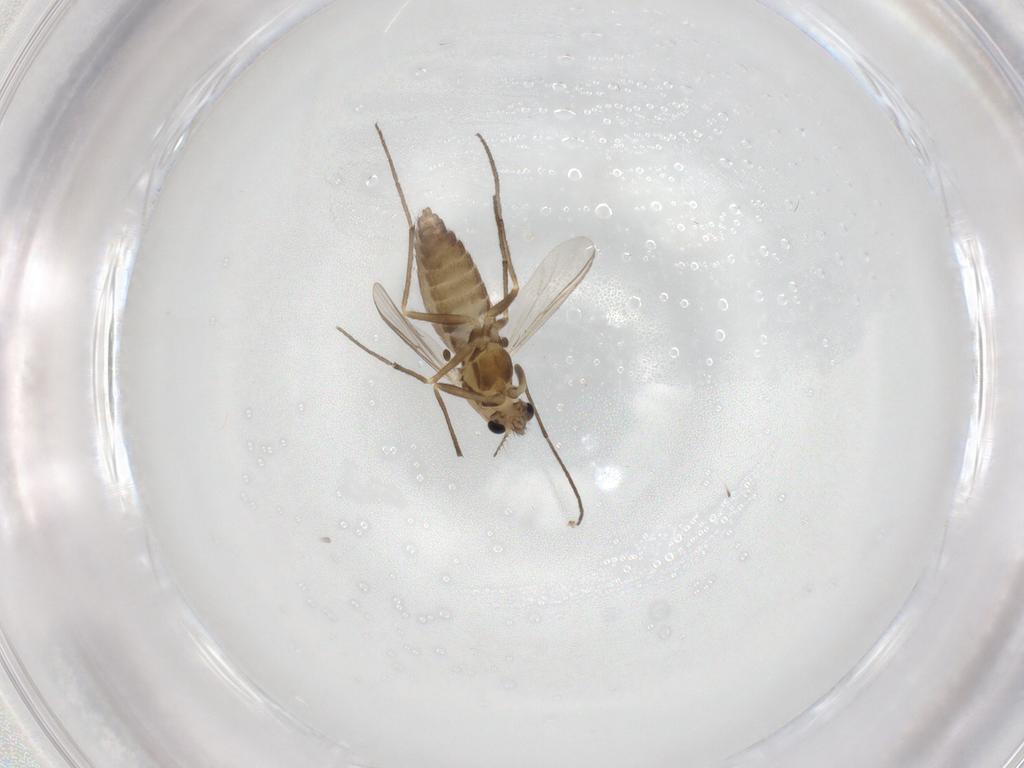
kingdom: Animalia
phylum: Arthropoda
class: Insecta
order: Diptera
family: Chironomidae
